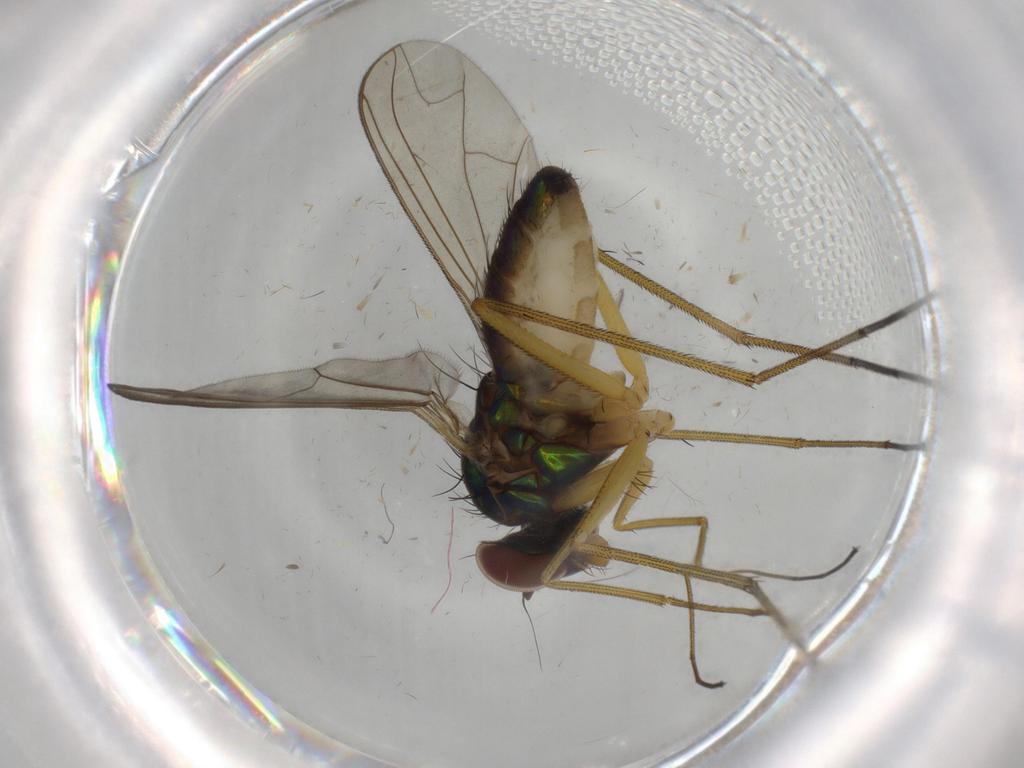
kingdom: Animalia
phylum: Arthropoda
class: Insecta
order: Diptera
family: Dolichopodidae
